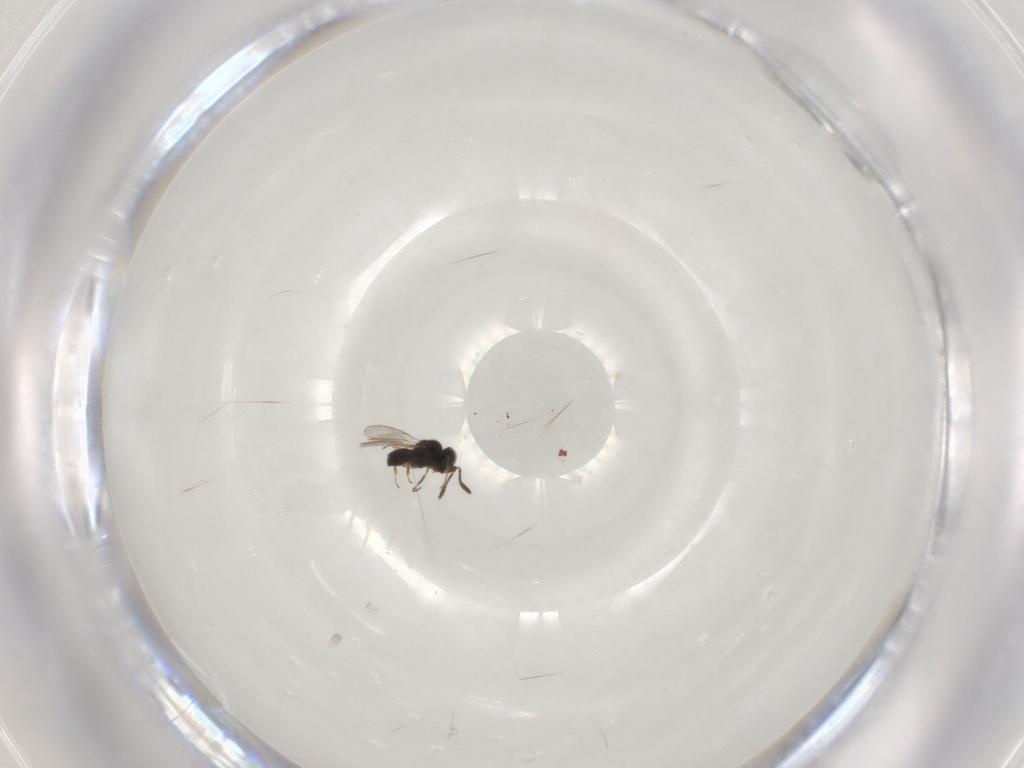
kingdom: Animalia
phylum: Arthropoda
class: Insecta
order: Hymenoptera
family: Scelionidae
